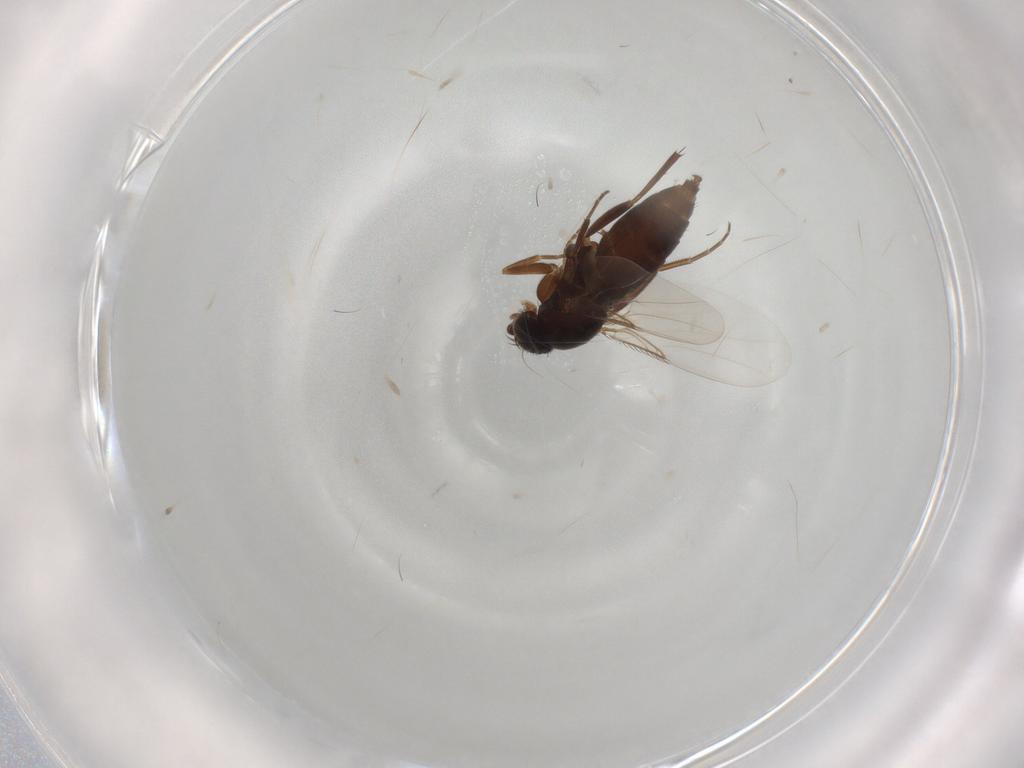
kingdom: Animalia
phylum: Arthropoda
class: Insecta
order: Diptera
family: Phoridae
